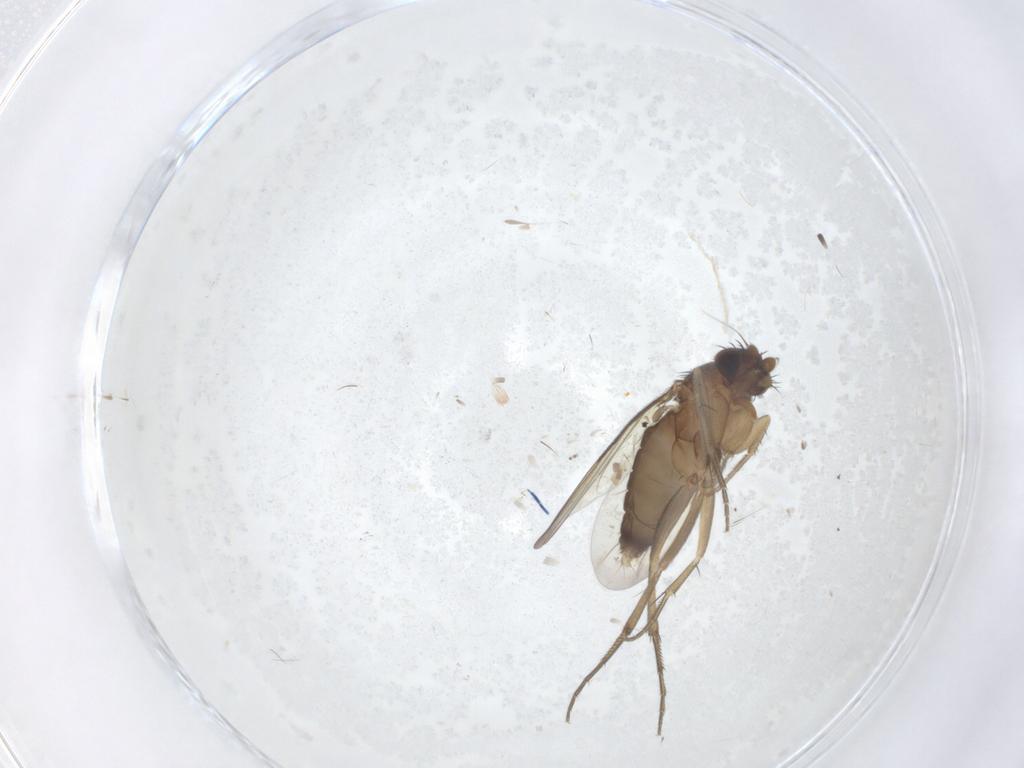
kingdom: Animalia
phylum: Arthropoda
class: Insecta
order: Diptera
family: Phoridae
